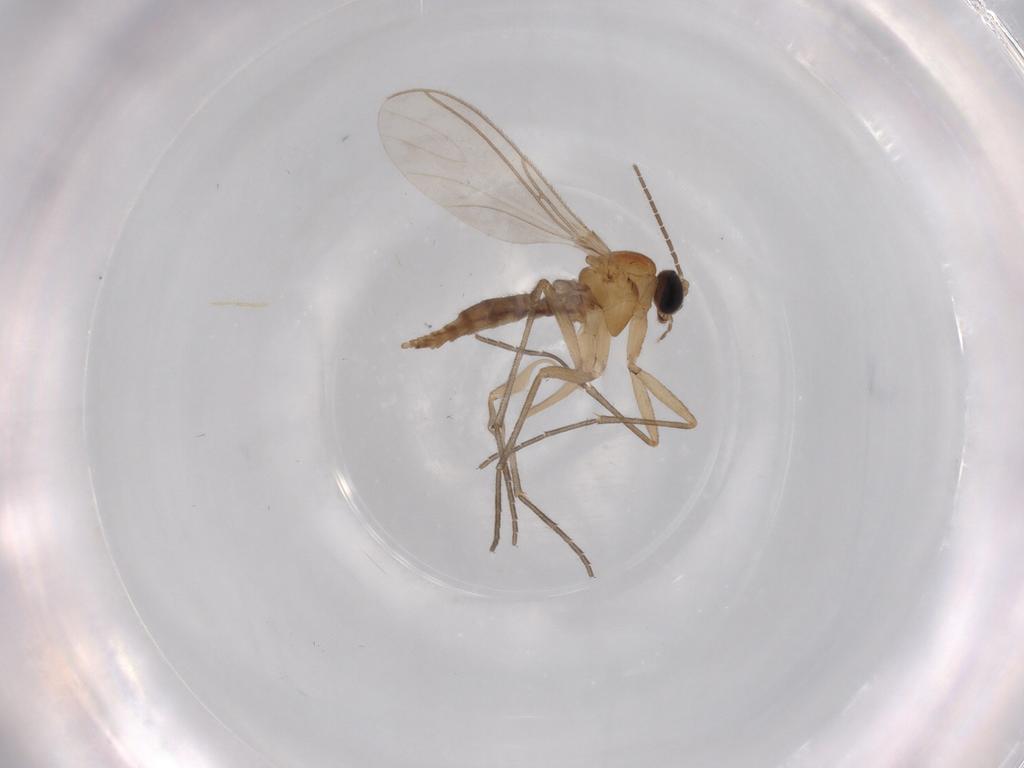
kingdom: Animalia
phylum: Arthropoda
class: Insecta
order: Diptera
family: Sciaridae
